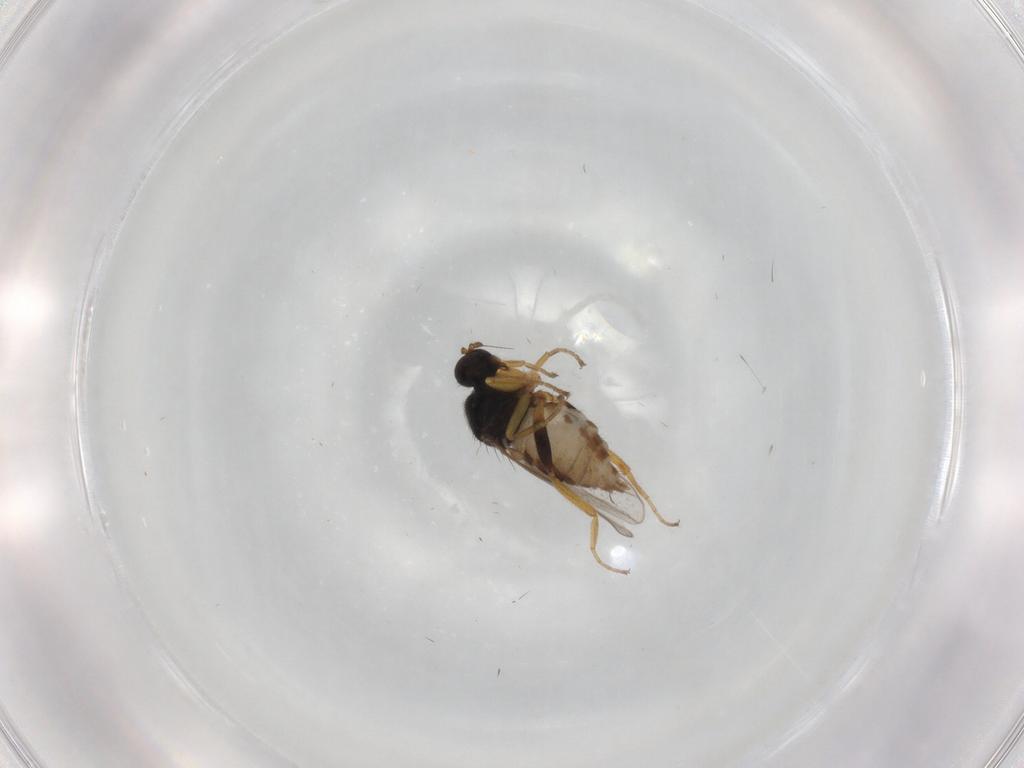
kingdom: Animalia
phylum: Arthropoda
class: Insecta
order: Diptera
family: Hybotidae
